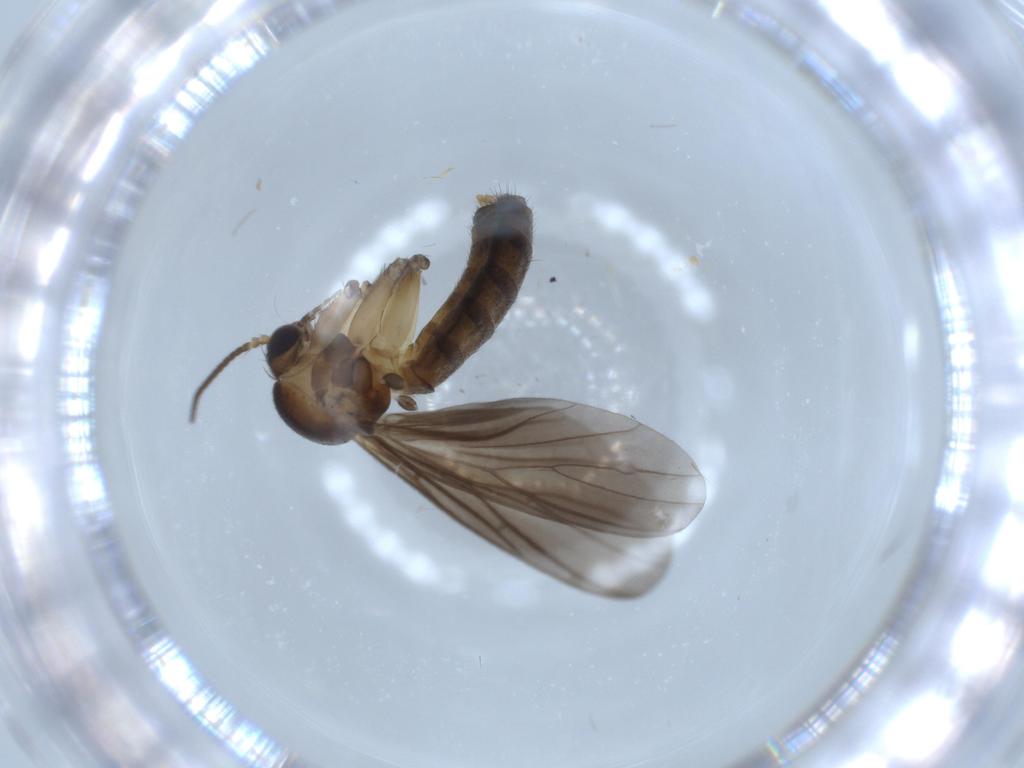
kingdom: Animalia
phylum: Arthropoda
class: Insecta
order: Diptera
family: Mycetophilidae
